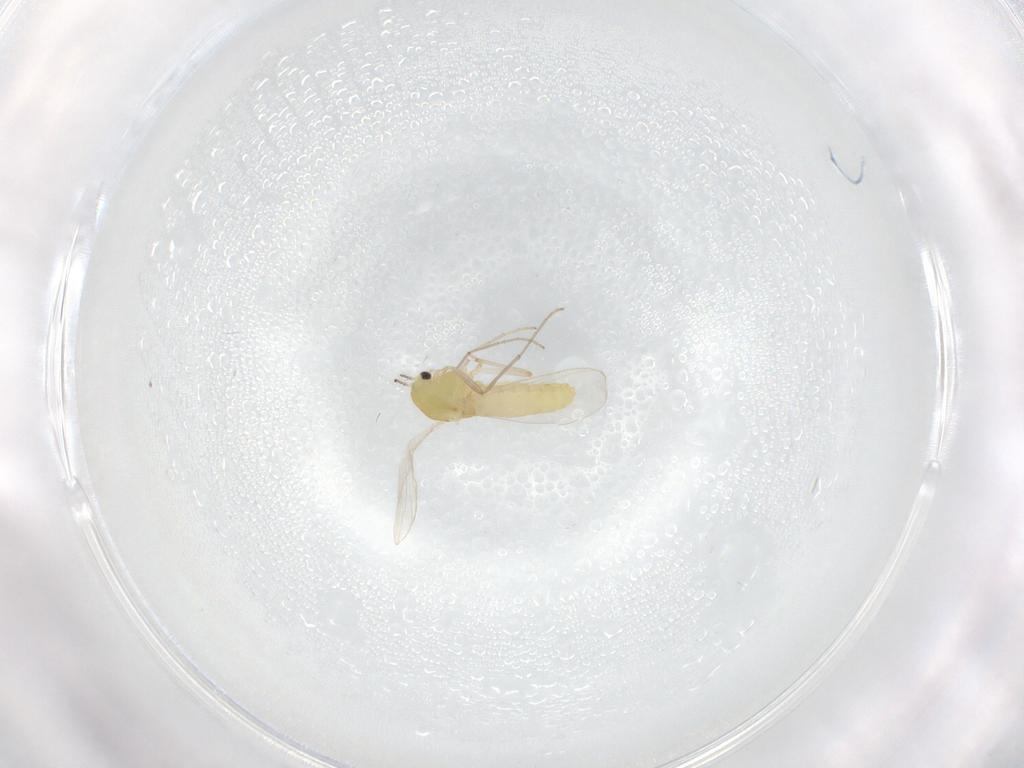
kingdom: Animalia
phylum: Arthropoda
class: Insecta
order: Diptera
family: Chironomidae
